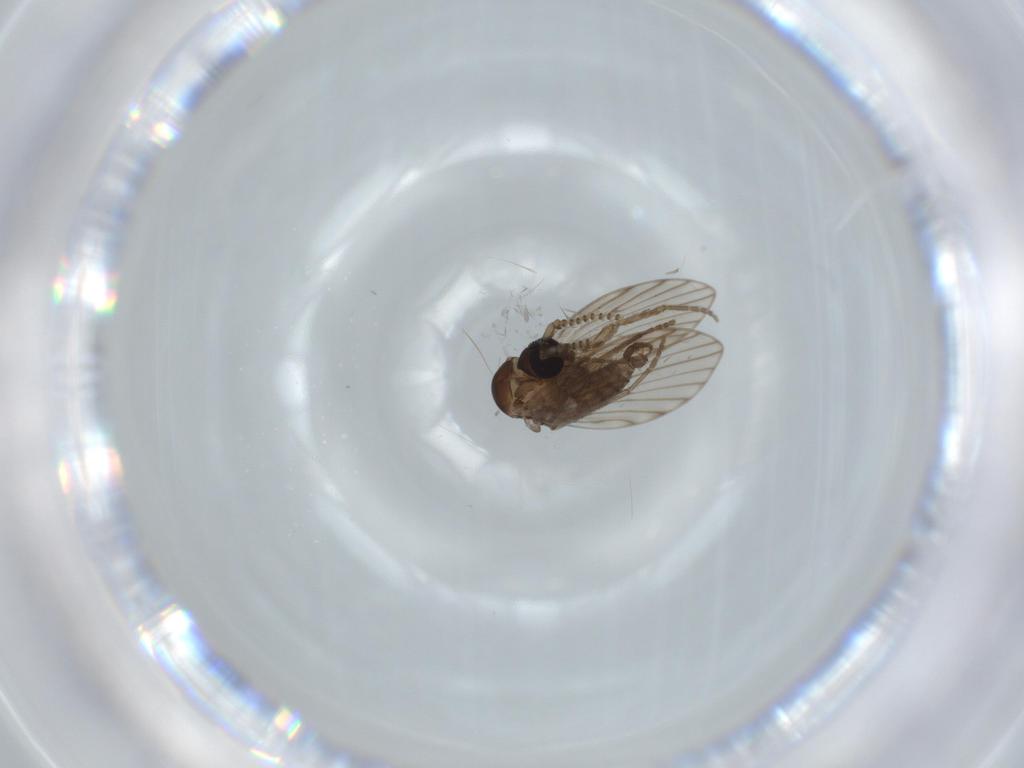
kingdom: Animalia
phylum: Arthropoda
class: Insecta
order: Diptera
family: Psychodidae
